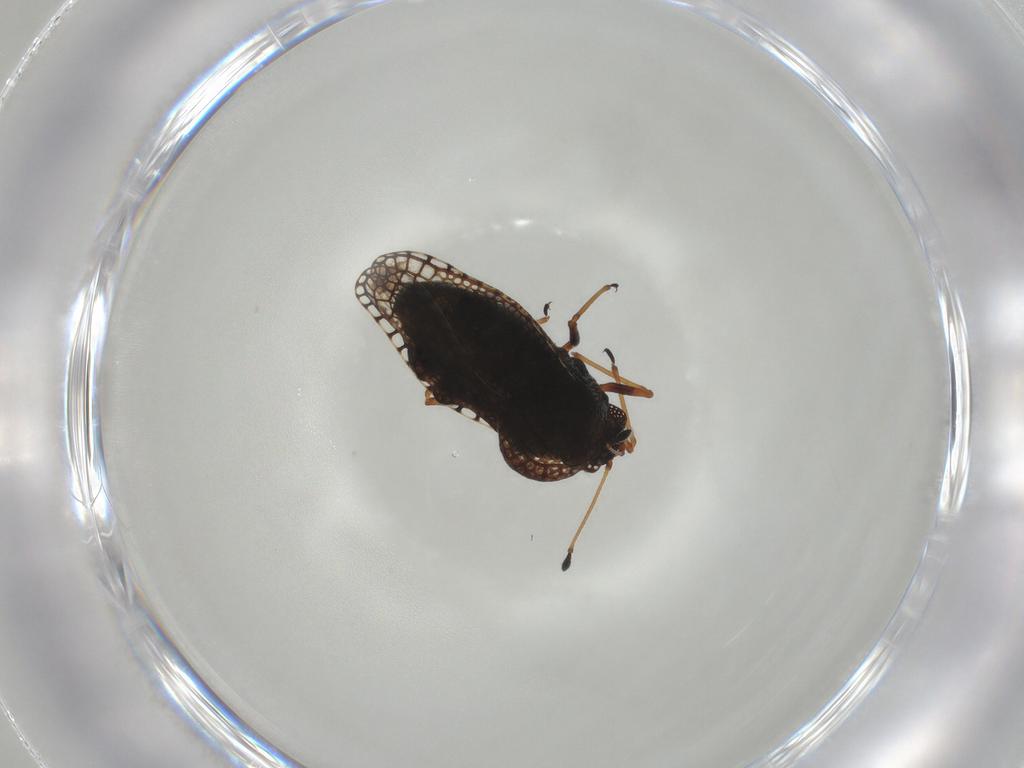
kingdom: Animalia
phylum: Arthropoda
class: Insecta
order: Hemiptera
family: Tingidae
